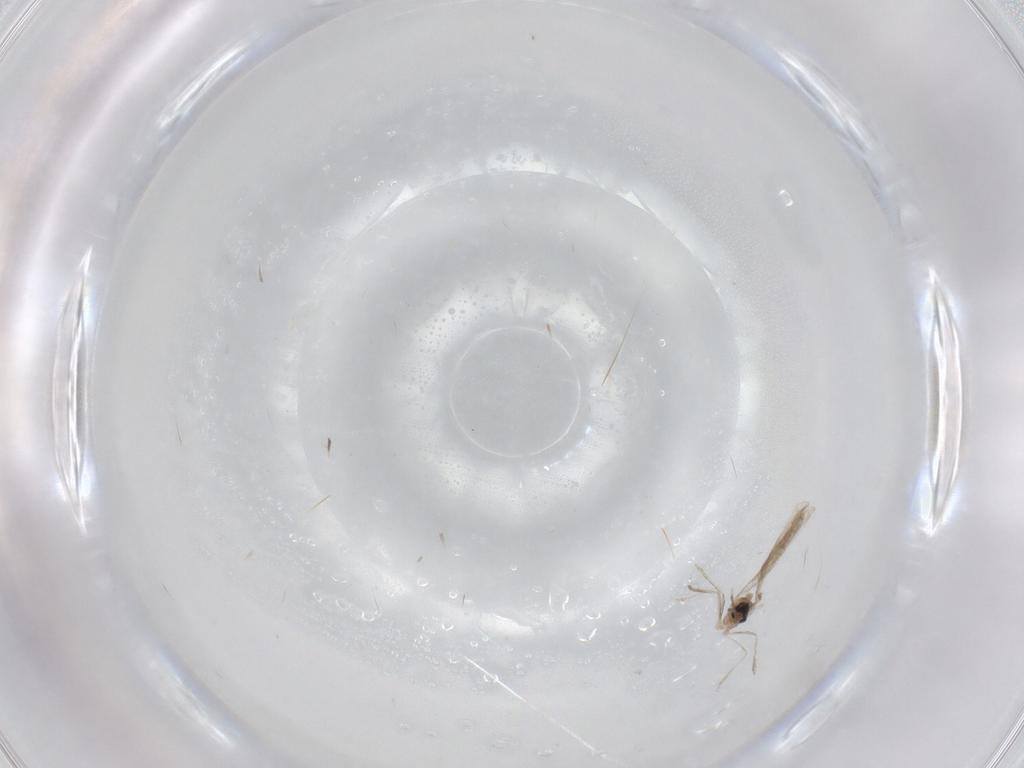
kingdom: Animalia
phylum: Arthropoda
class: Insecta
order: Diptera
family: Cecidomyiidae
